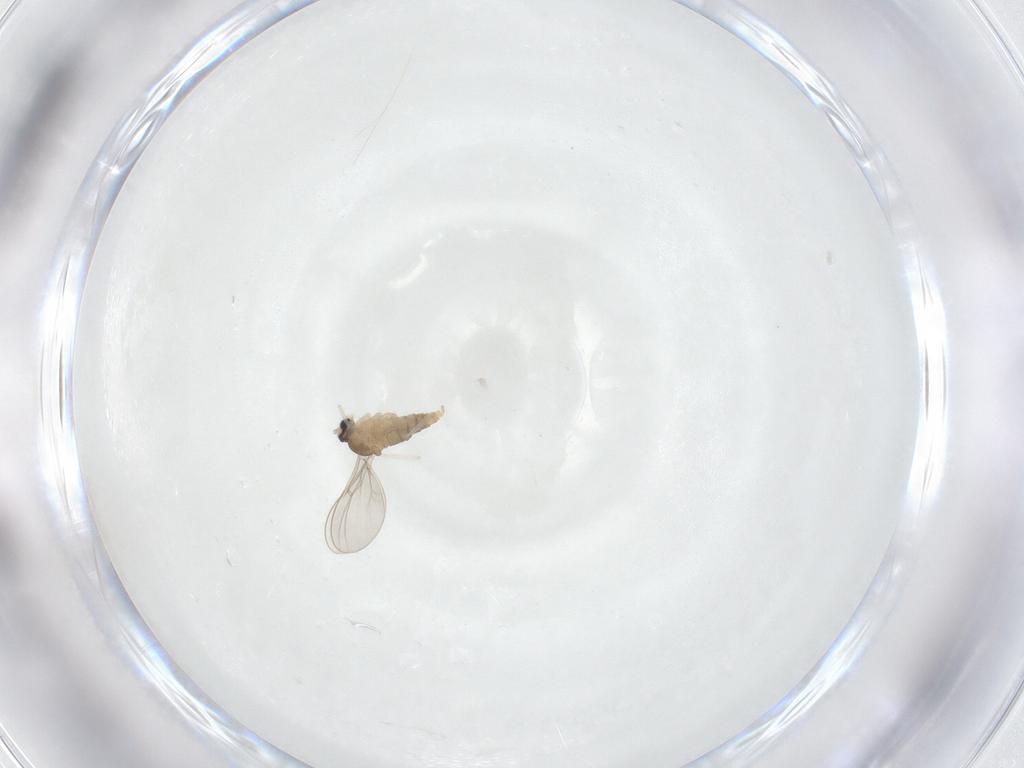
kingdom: Animalia
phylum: Arthropoda
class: Insecta
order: Diptera
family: Cecidomyiidae
